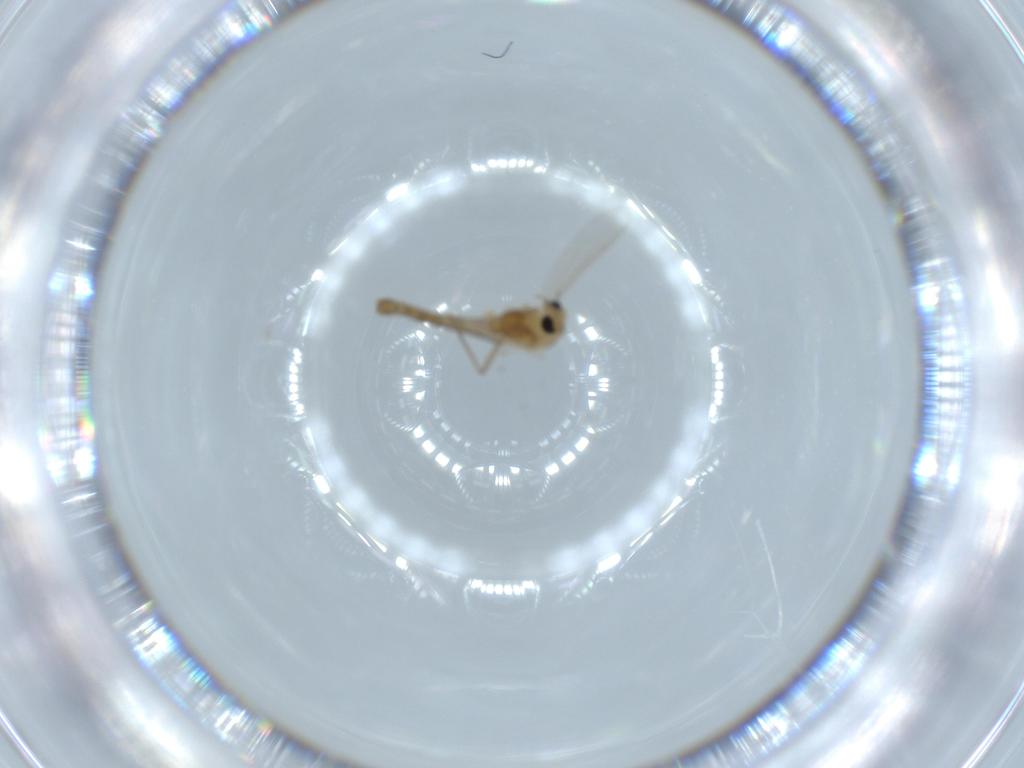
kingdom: Animalia
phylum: Arthropoda
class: Insecta
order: Diptera
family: Chironomidae
